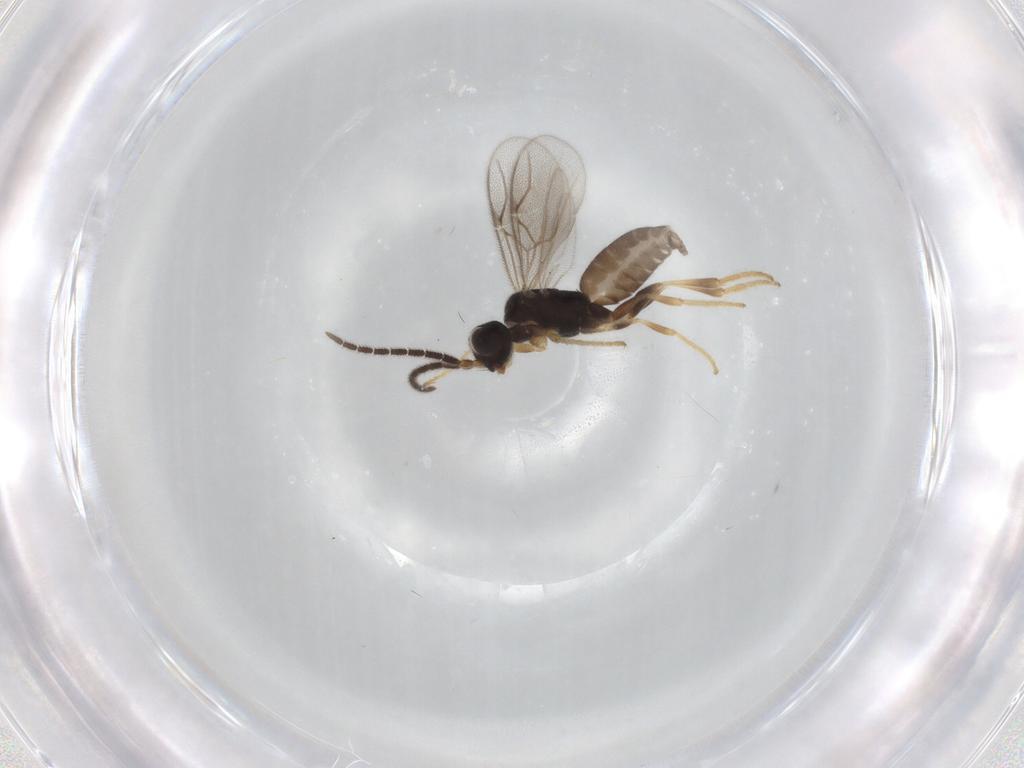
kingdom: Animalia
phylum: Arthropoda
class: Insecta
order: Hymenoptera
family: Dryinidae
